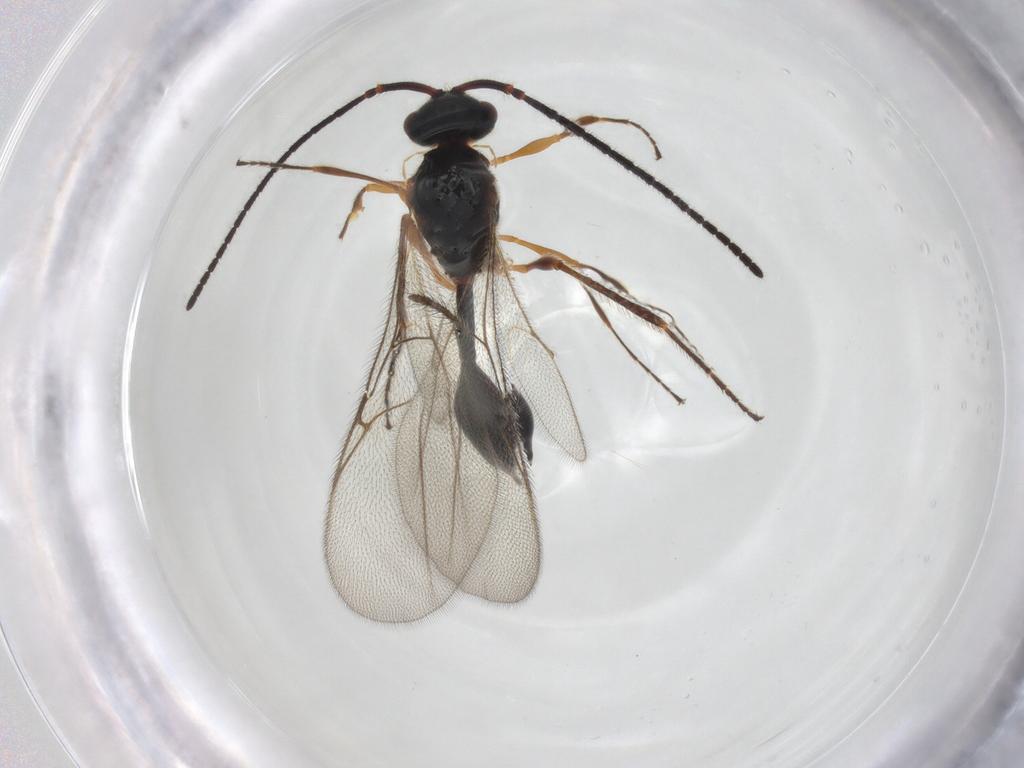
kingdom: Animalia
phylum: Arthropoda
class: Insecta
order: Hymenoptera
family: Diapriidae
